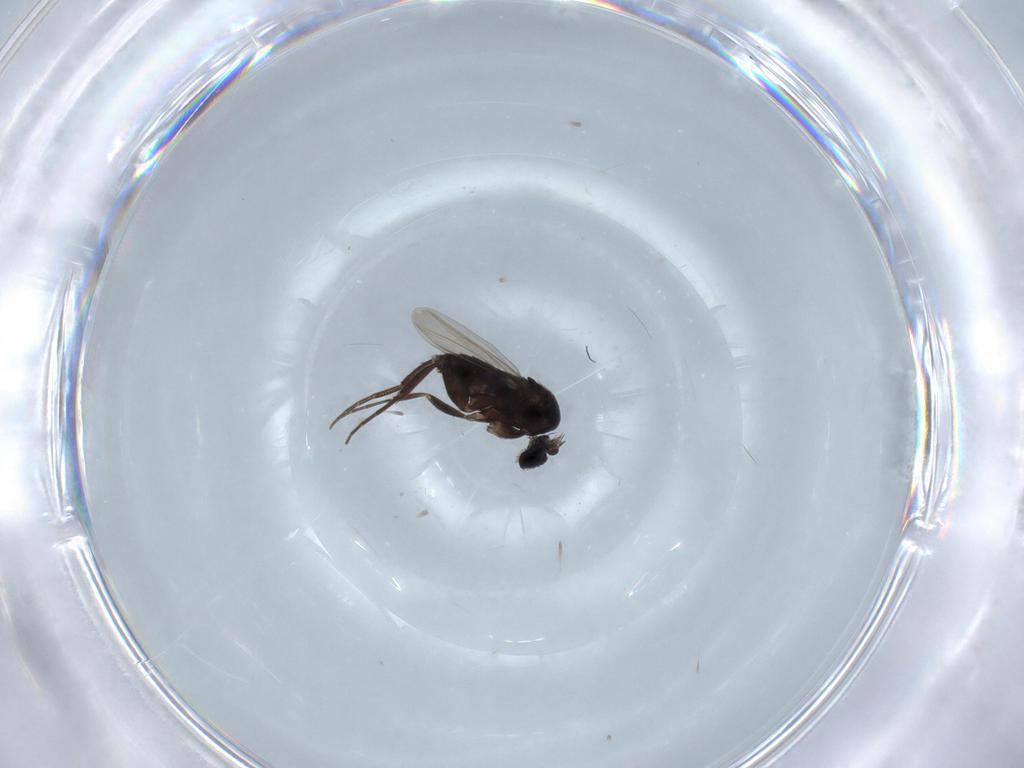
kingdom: Animalia
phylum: Arthropoda
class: Insecta
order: Diptera
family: Phoridae
